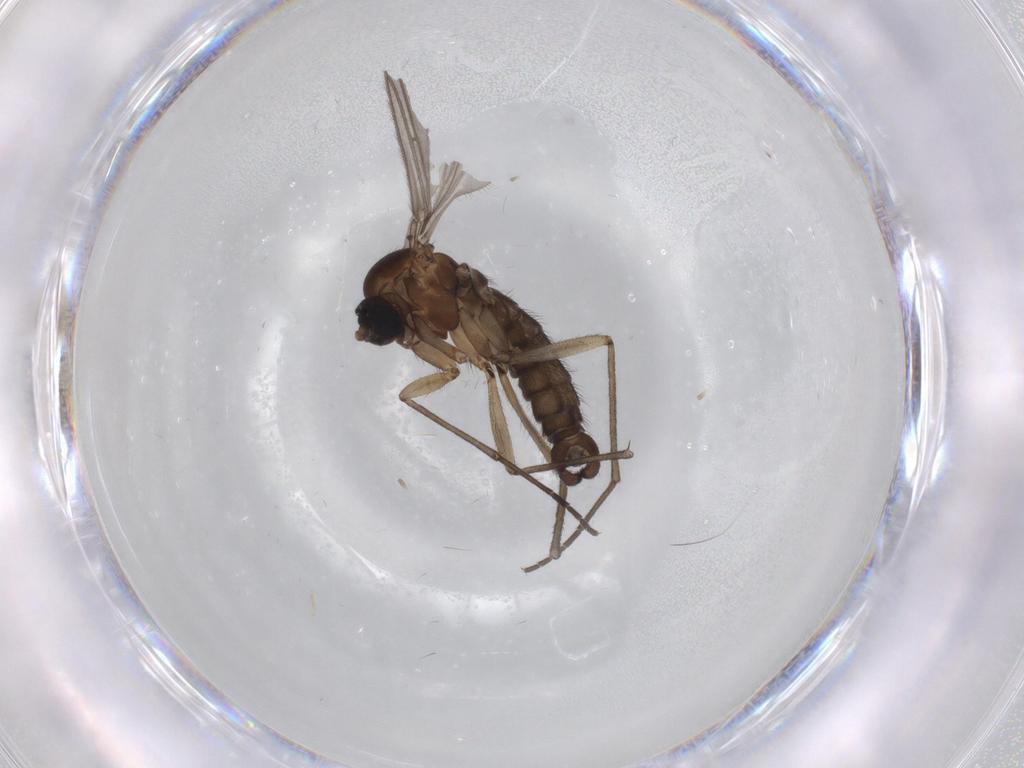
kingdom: Animalia
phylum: Arthropoda
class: Insecta
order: Diptera
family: Sciaridae
